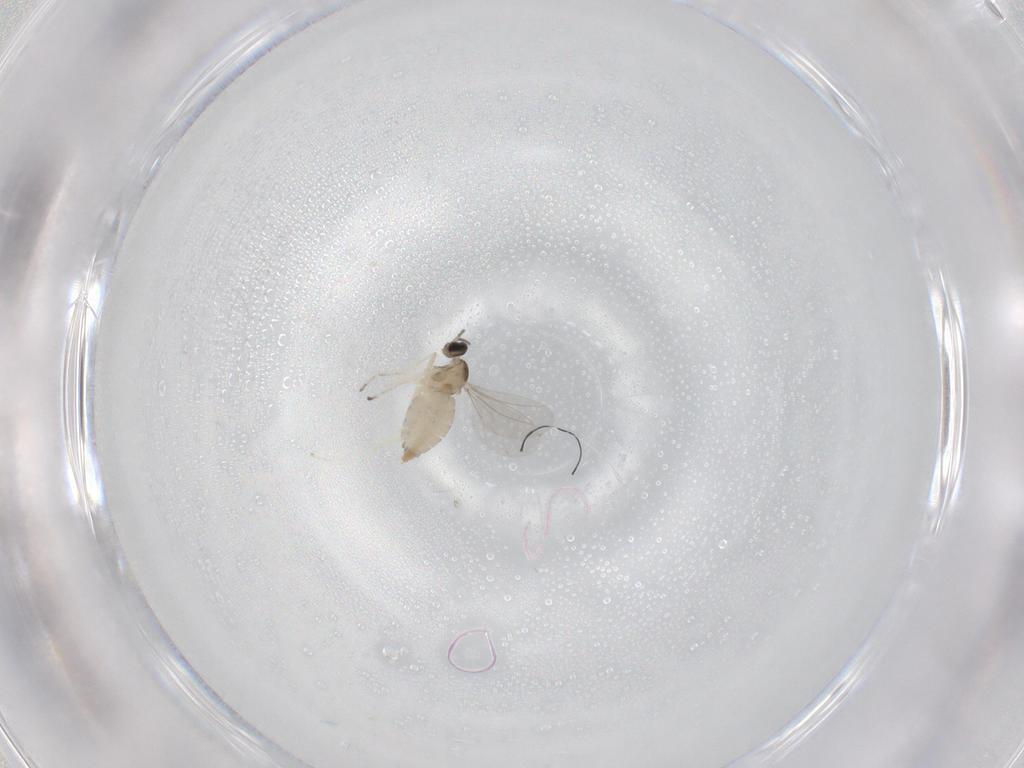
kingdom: Animalia
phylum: Arthropoda
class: Insecta
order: Diptera
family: Cecidomyiidae
